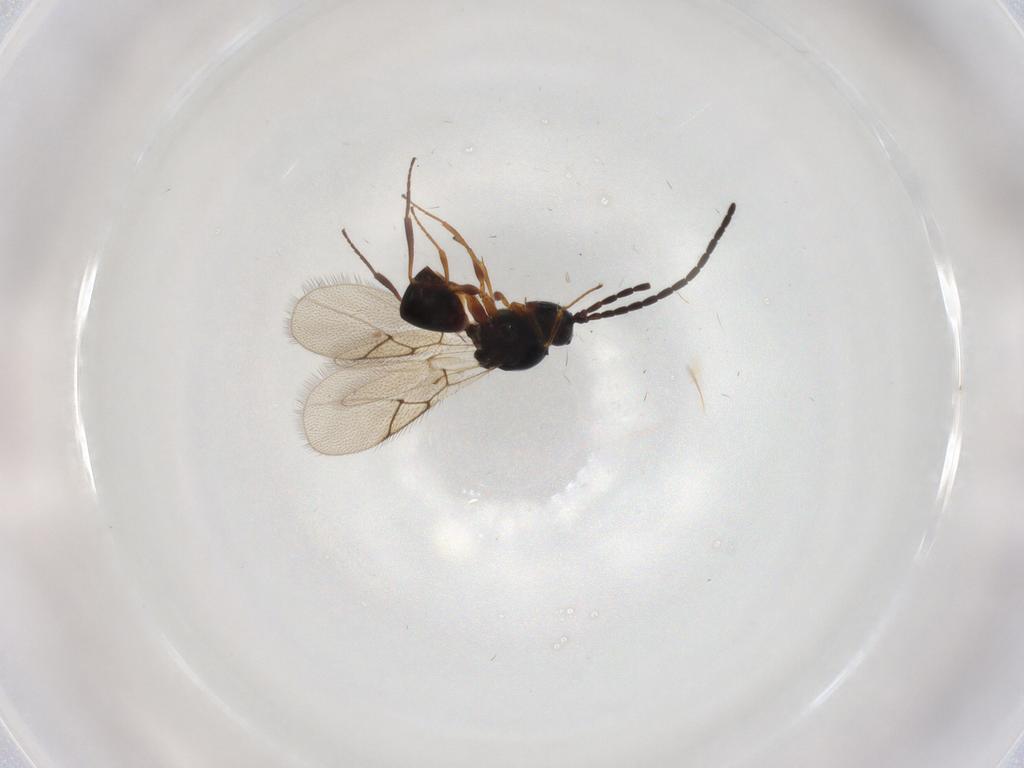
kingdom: Animalia
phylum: Arthropoda
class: Insecta
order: Hymenoptera
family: Figitidae
